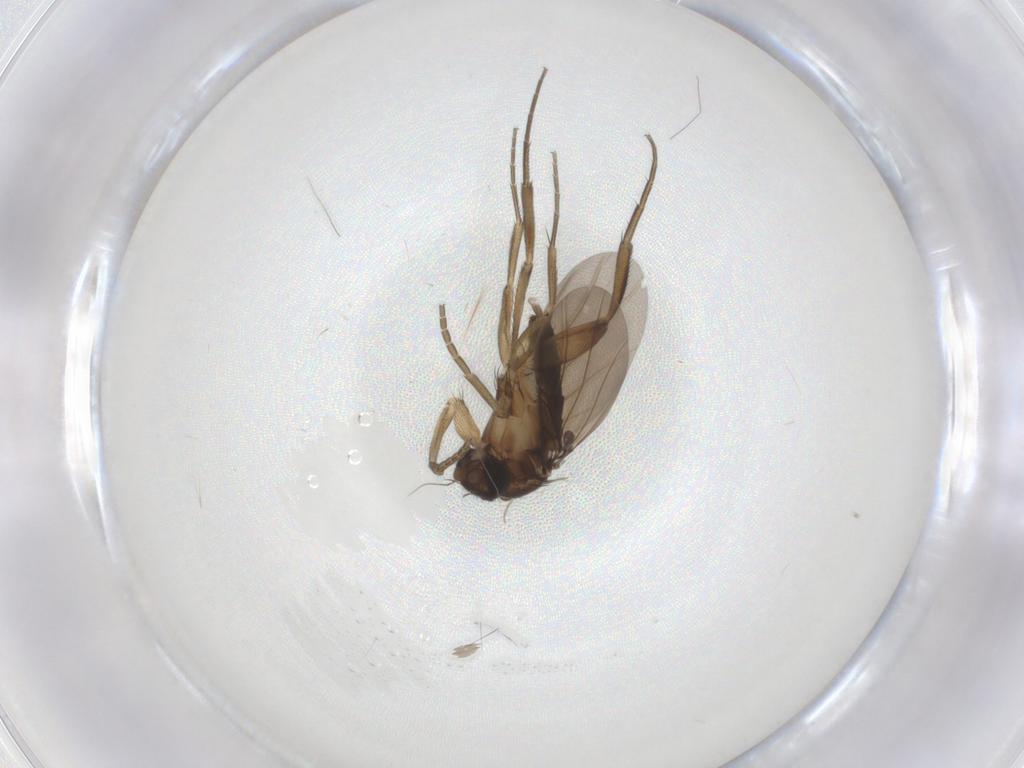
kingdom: Animalia
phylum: Arthropoda
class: Insecta
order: Diptera
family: Phoridae
